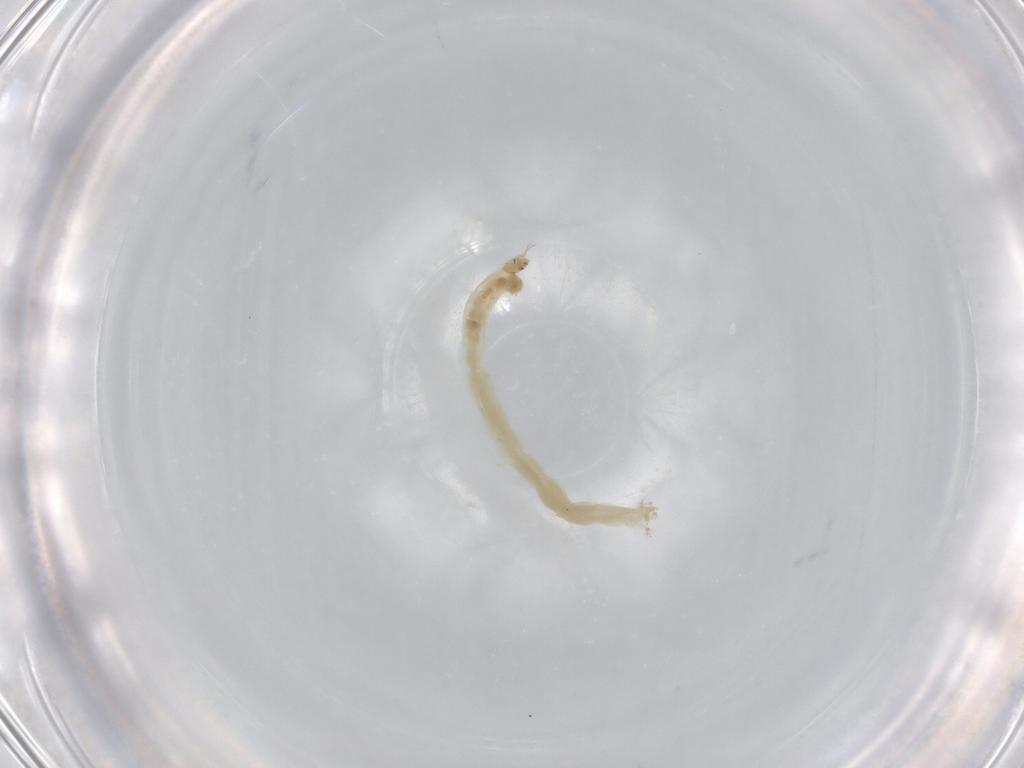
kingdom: Animalia
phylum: Arthropoda
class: Insecta
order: Diptera
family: Chironomidae
